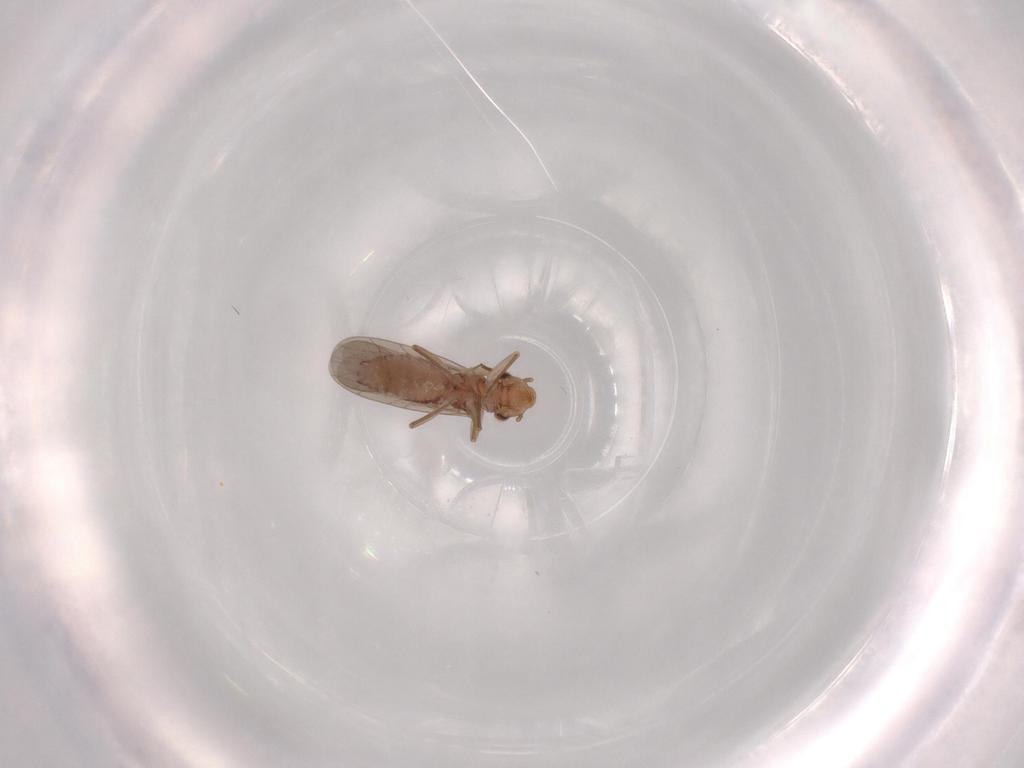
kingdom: Animalia
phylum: Arthropoda
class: Insecta
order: Psocodea
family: Lepidopsocidae
